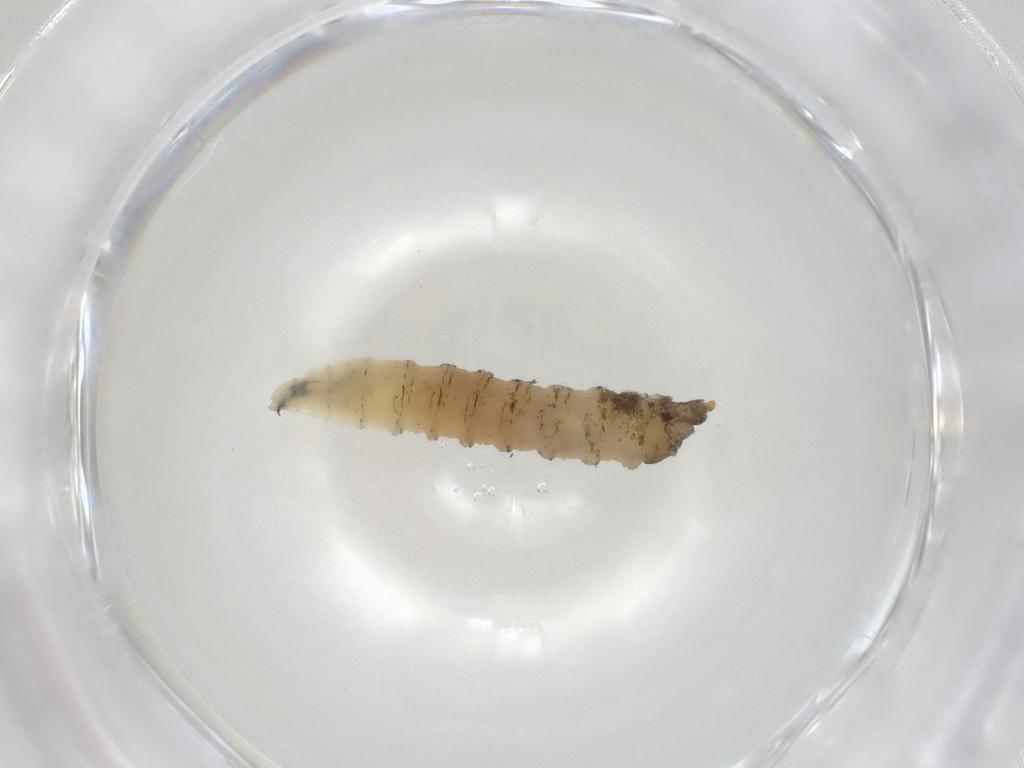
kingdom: Animalia
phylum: Arthropoda
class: Insecta
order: Diptera
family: Drosophilidae
